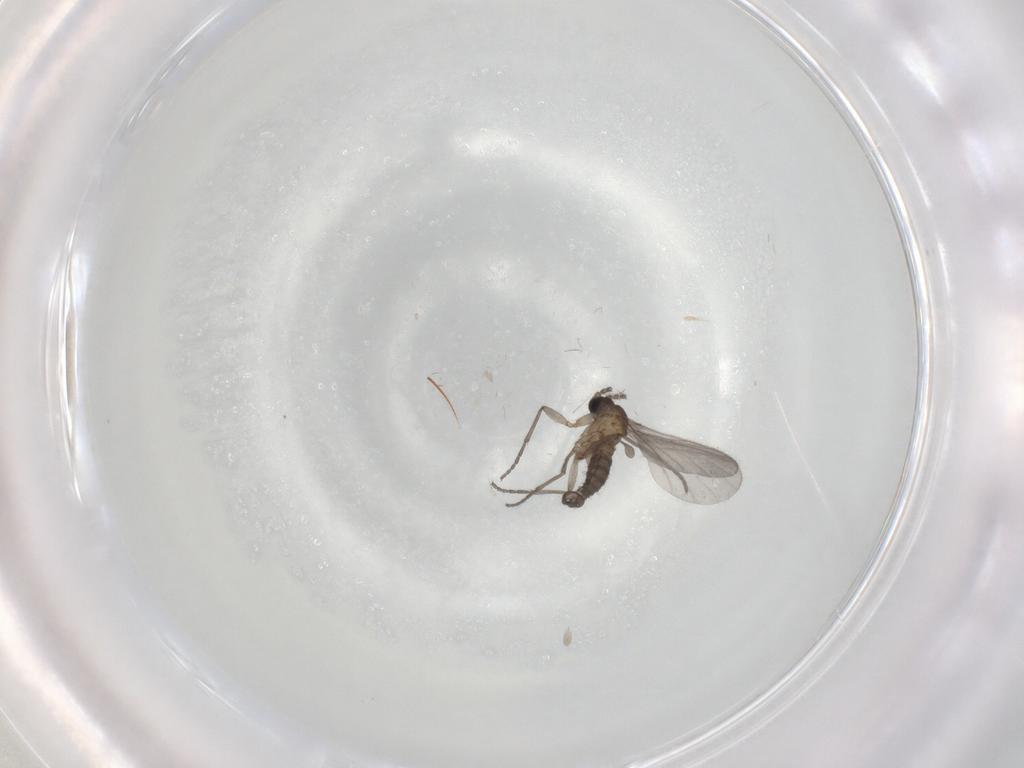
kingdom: Animalia
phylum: Arthropoda
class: Insecta
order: Diptera
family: Sciaridae
